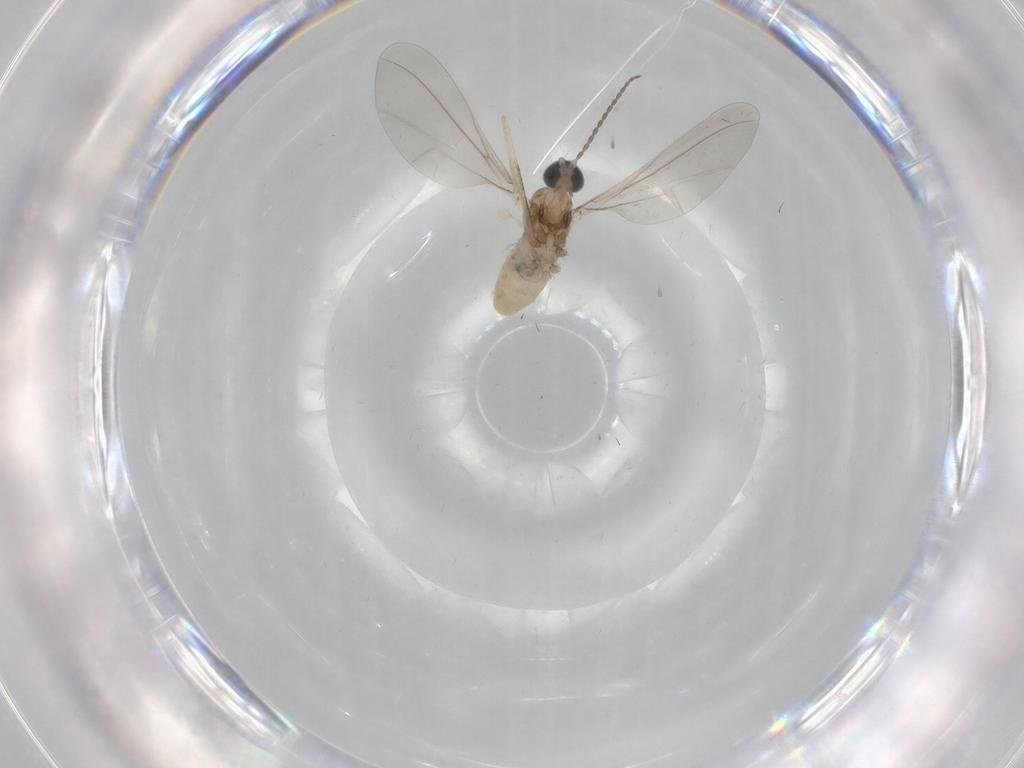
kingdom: Animalia
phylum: Arthropoda
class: Insecta
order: Diptera
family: Cecidomyiidae
